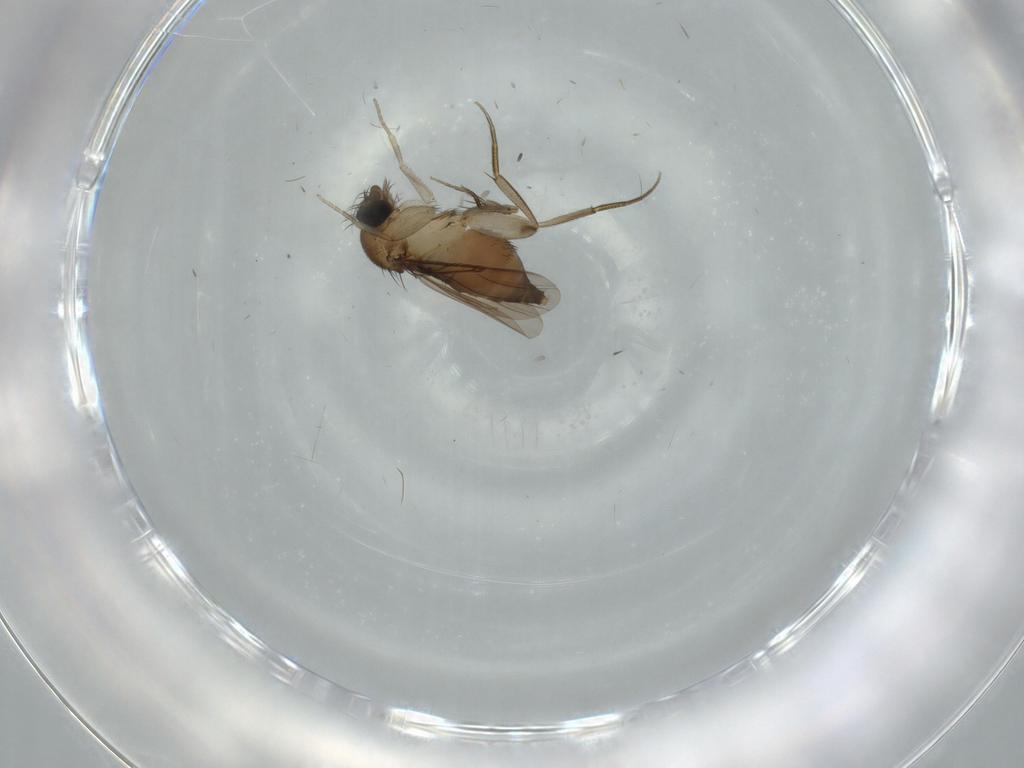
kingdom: Animalia
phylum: Arthropoda
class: Insecta
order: Diptera
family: Phoridae
